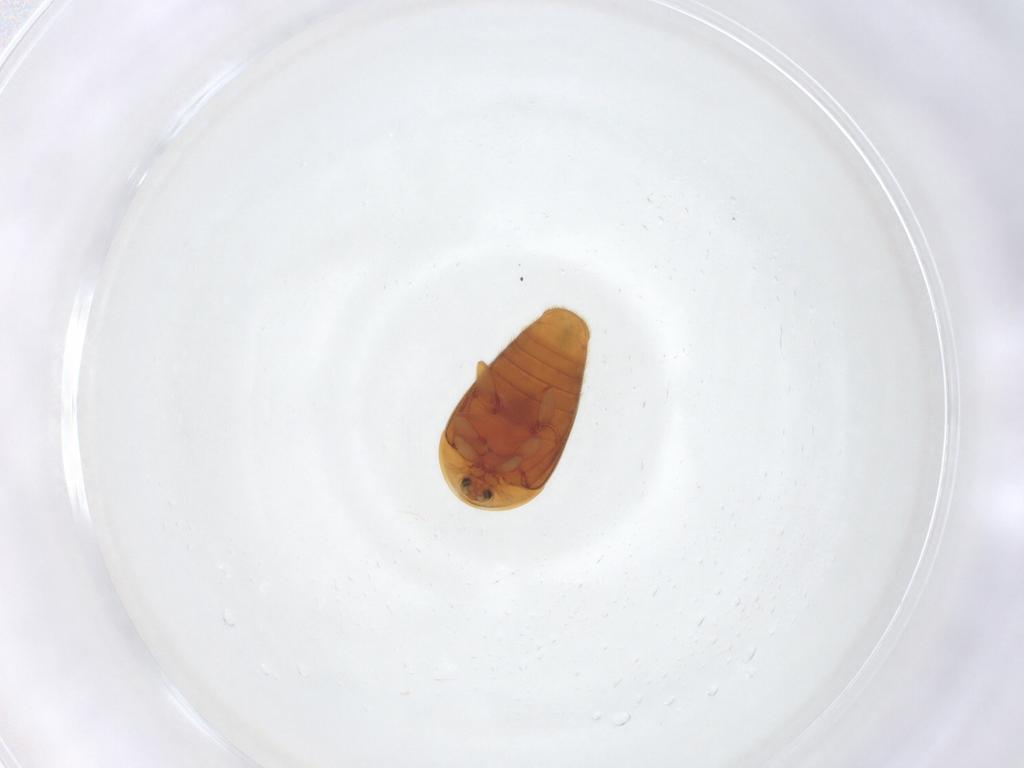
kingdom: Animalia
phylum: Arthropoda
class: Insecta
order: Coleoptera
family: Corylophidae
